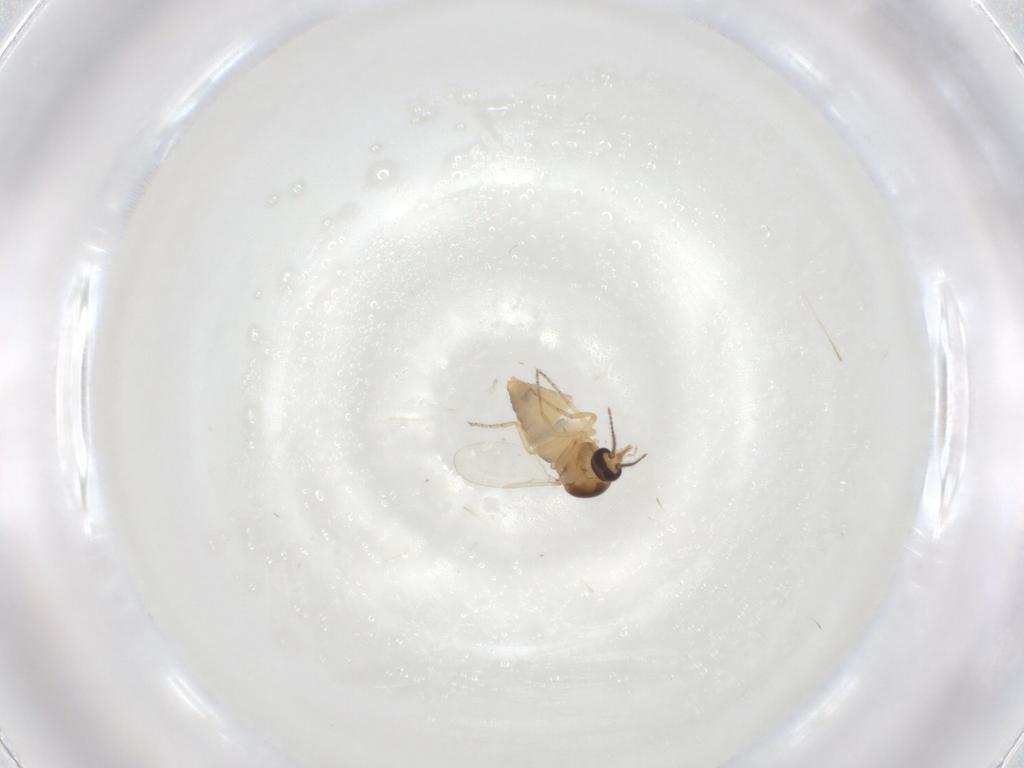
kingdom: Animalia
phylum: Arthropoda
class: Insecta
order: Diptera
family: Ceratopogonidae
